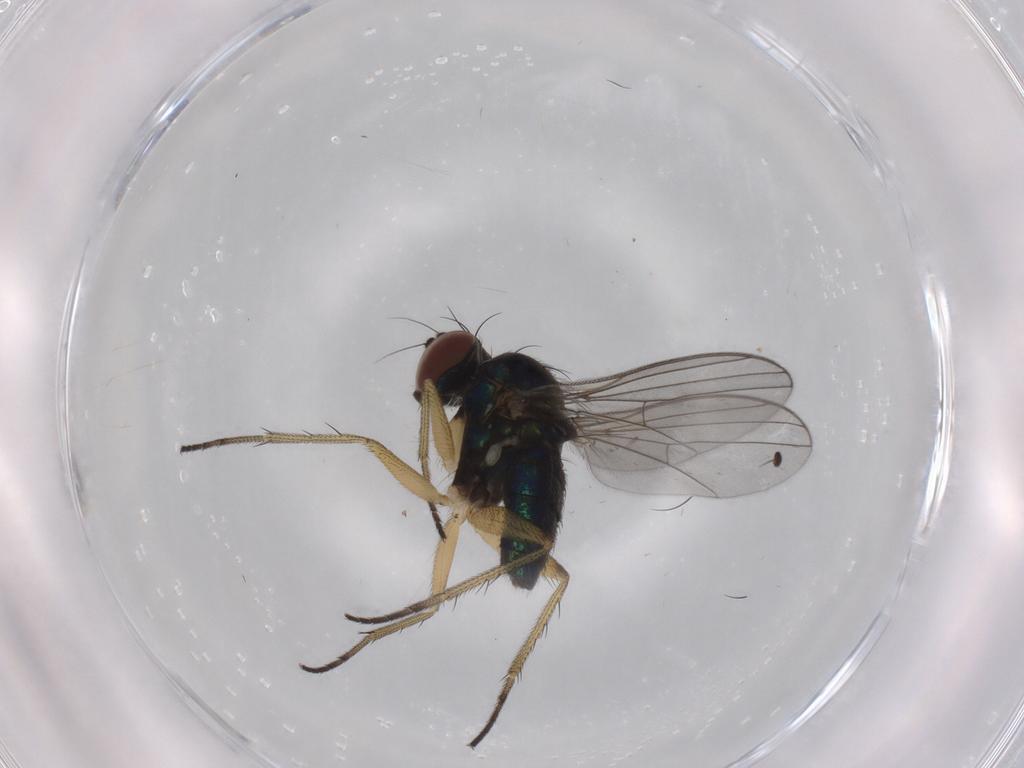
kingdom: Animalia
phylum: Arthropoda
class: Insecta
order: Diptera
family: Dolichopodidae
